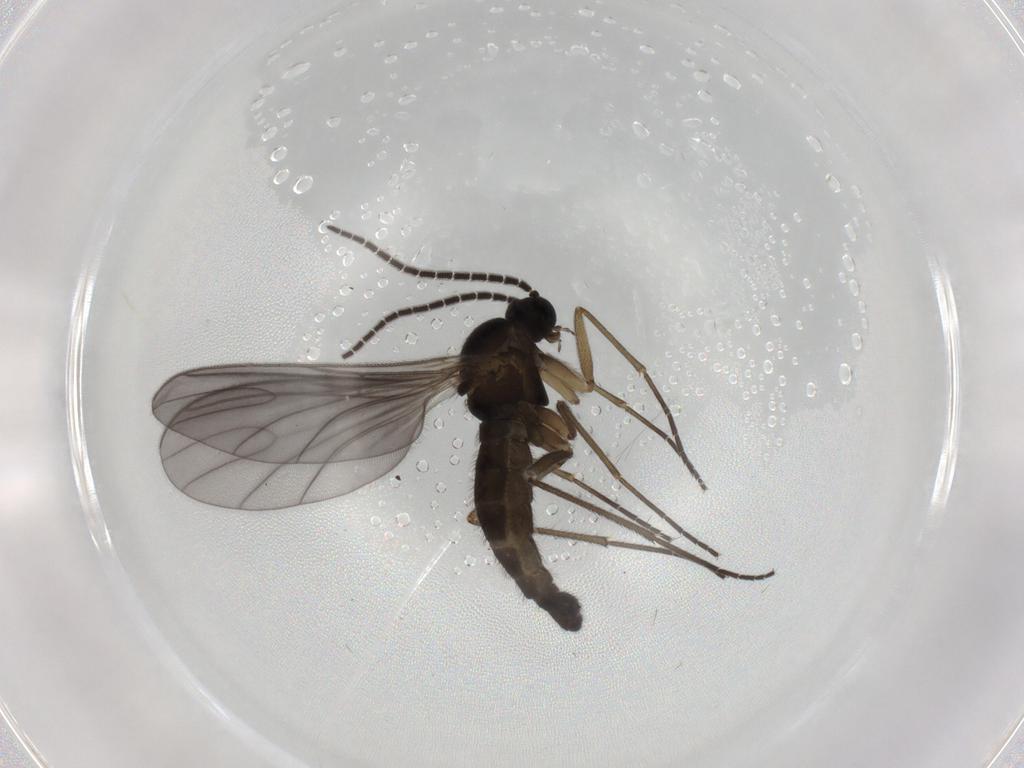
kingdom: Animalia
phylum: Arthropoda
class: Insecta
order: Diptera
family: Sciaridae
